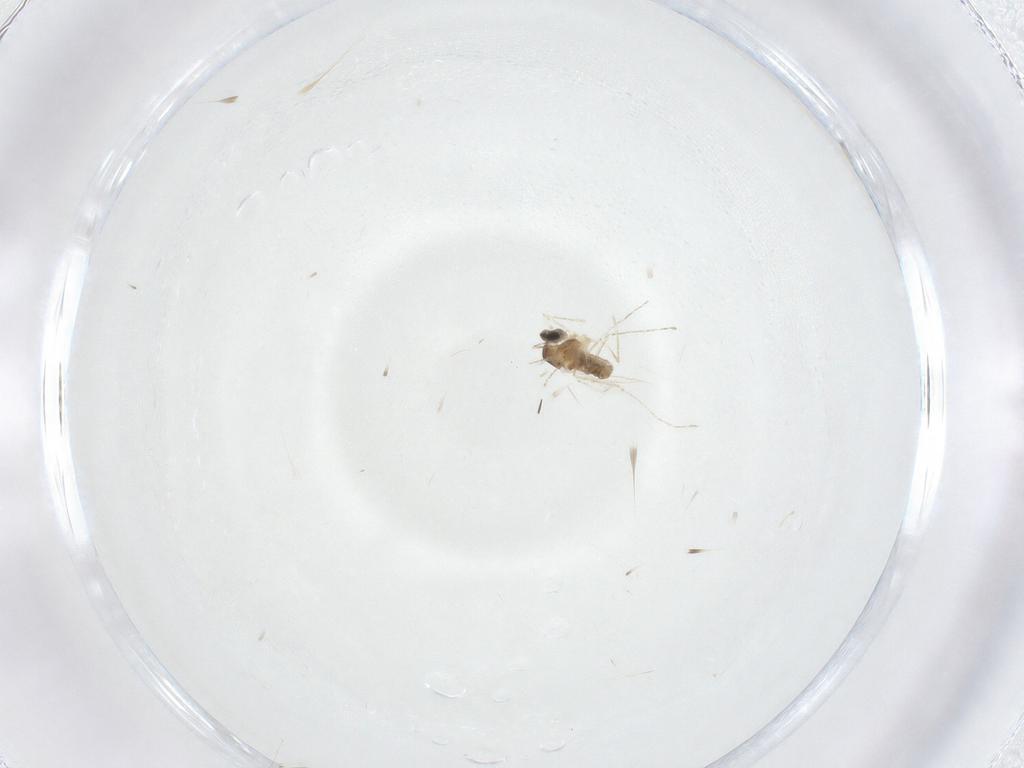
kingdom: Animalia
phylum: Arthropoda
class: Insecta
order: Diptera
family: Cecidomyiidae
